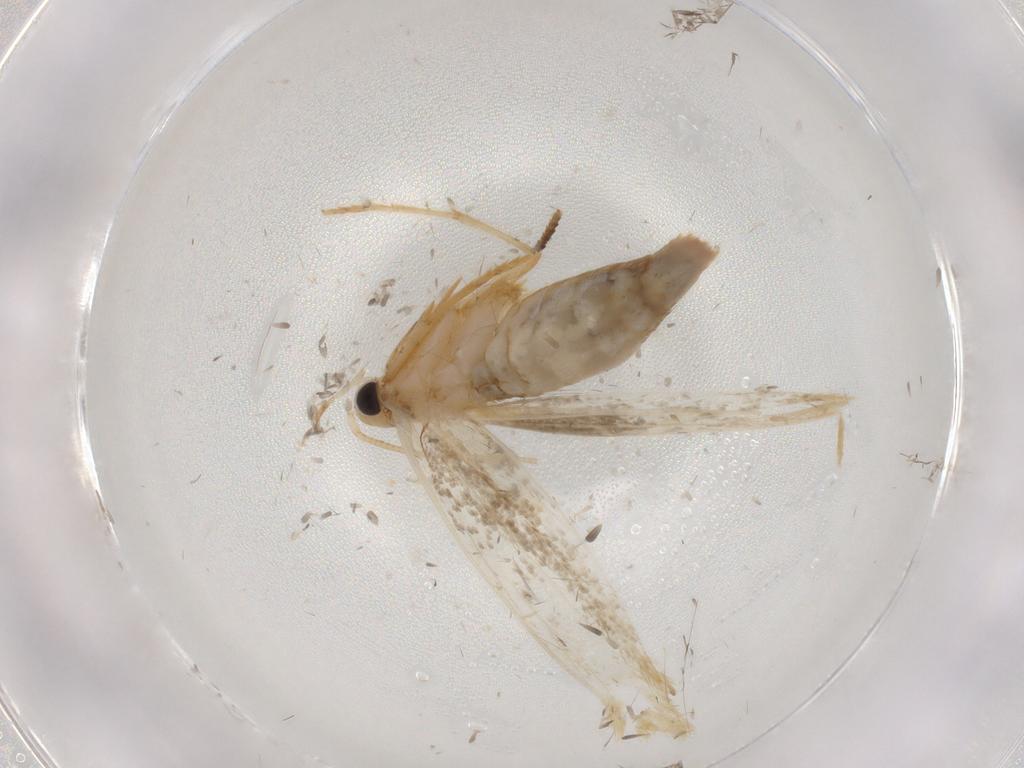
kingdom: Animalia
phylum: Arthropoda
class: Insecta
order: Lepidoptera
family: Tineidae
